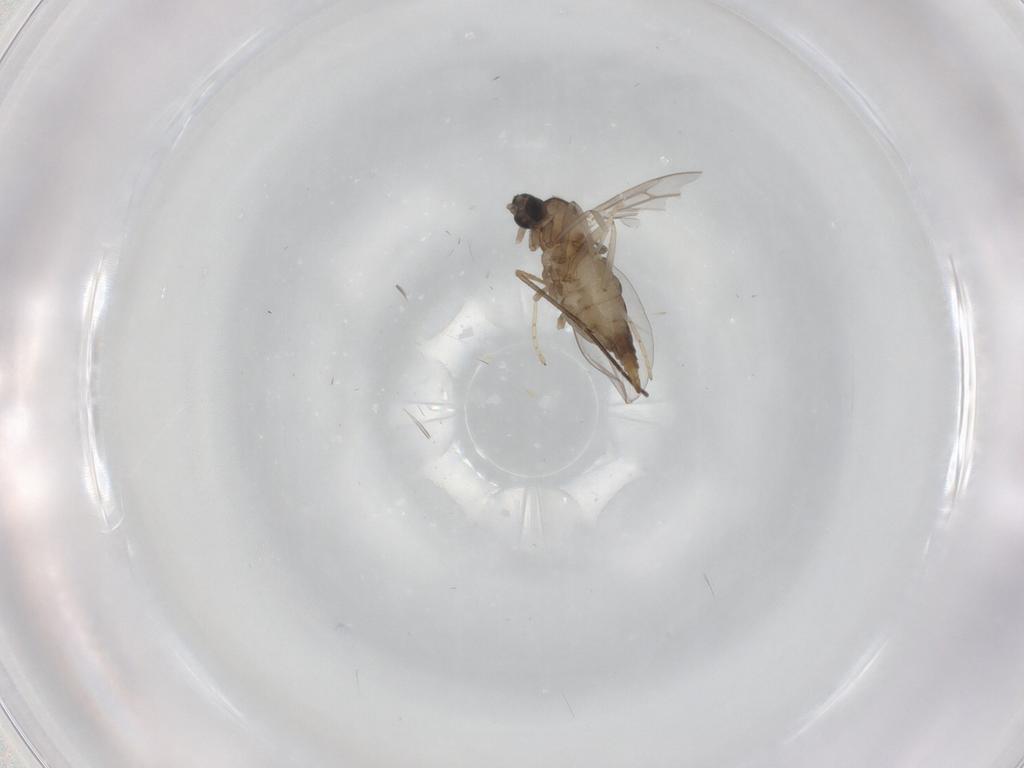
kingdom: Animalia
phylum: Arthropoda
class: Insecta
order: Diptera
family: Cecidomyiidae
